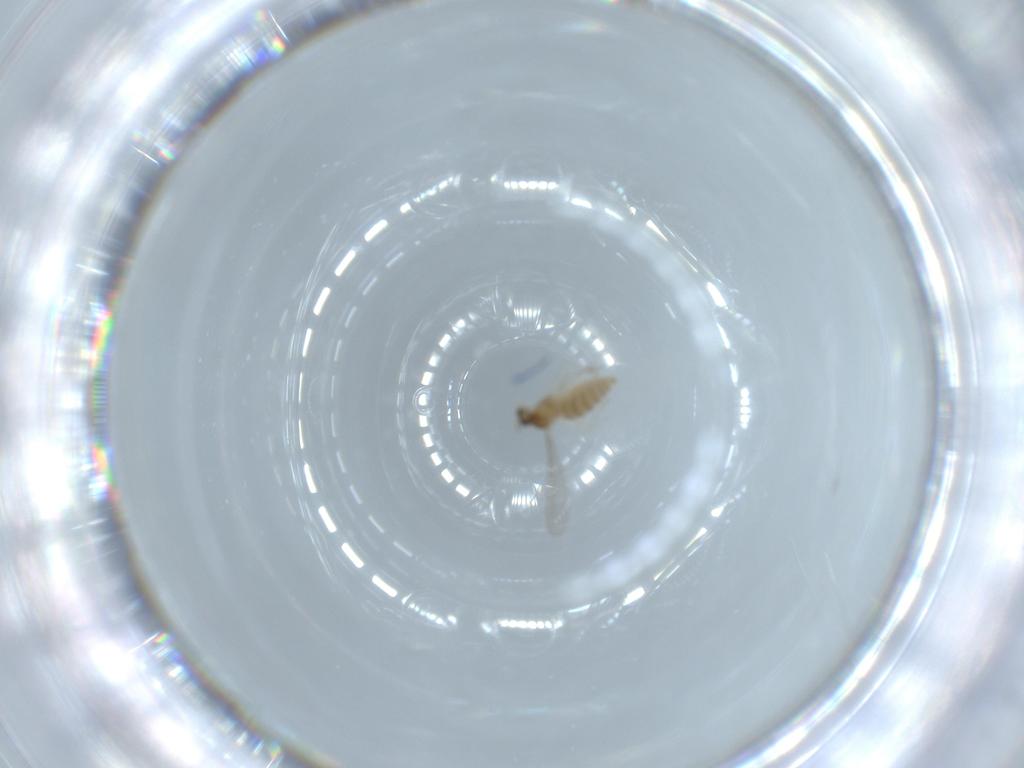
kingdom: Animalia
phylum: Arthropoda
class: Insecta
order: Diptera
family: Cecidomyiidae
